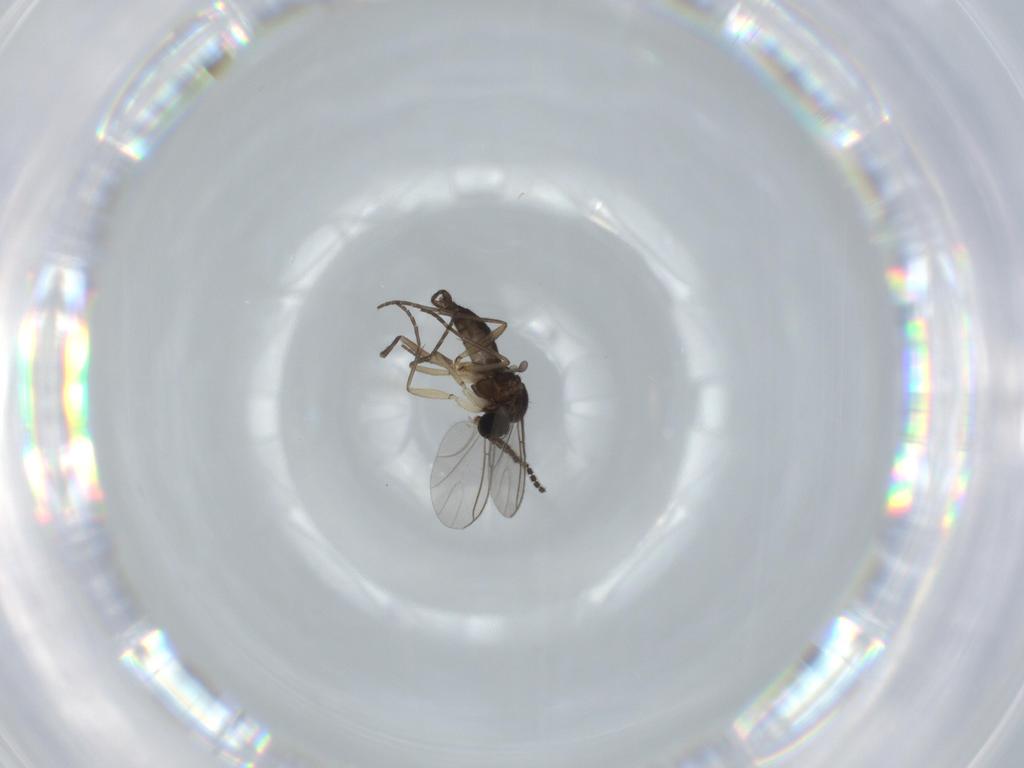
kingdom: Animalia
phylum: Arthropoda
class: Insecta
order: Diptera
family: Sciaridae
